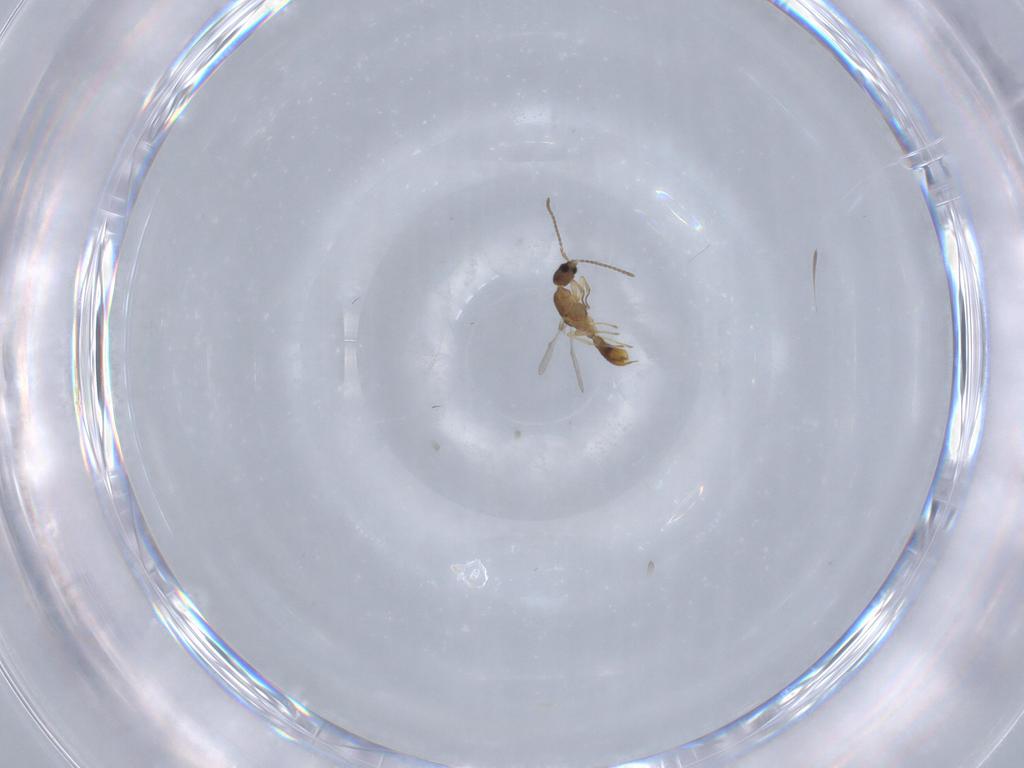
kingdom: Animalia
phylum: Arthropoda
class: Insecta
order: Hymenoptera
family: Formicidae
